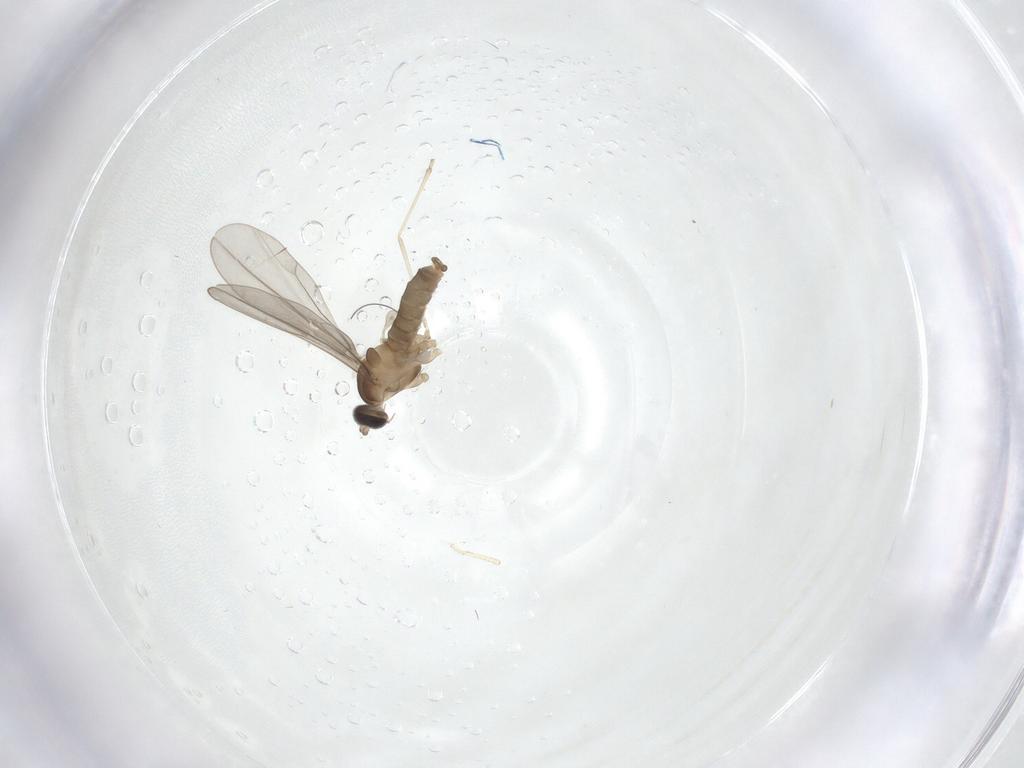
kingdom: Animalia
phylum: Arthropoda
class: Insecta
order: Diptera
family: Cecidomyiidae
